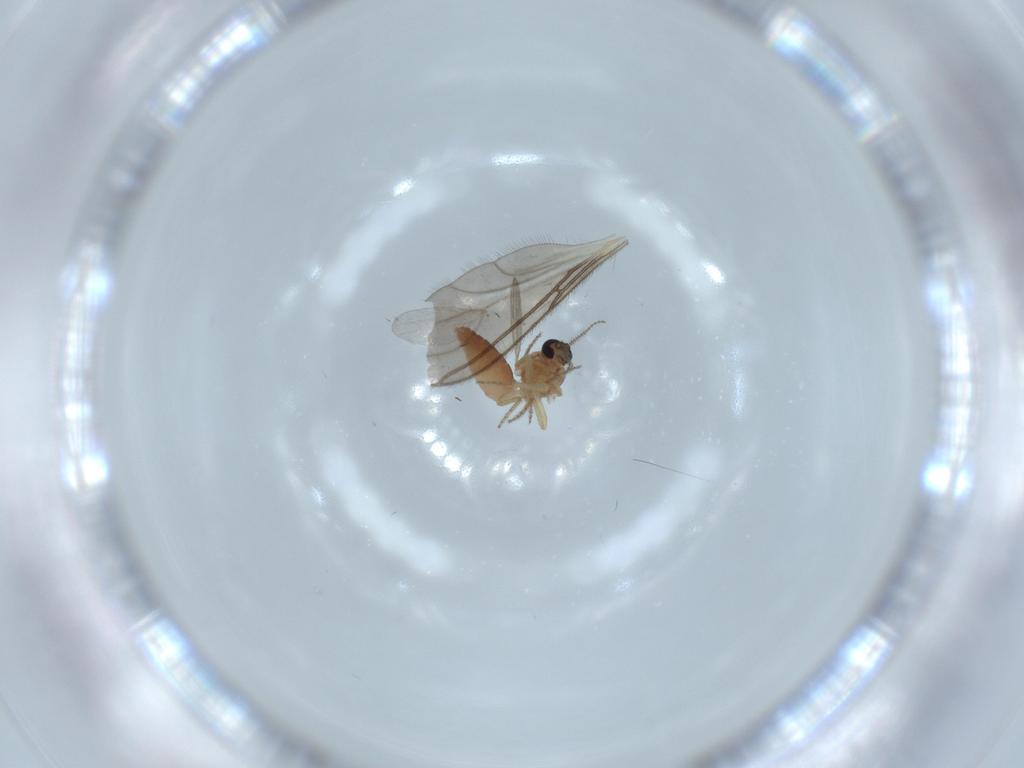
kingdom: Animalia
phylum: Arthropoda
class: Insecta
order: Diptera
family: Ceratopogonidae
